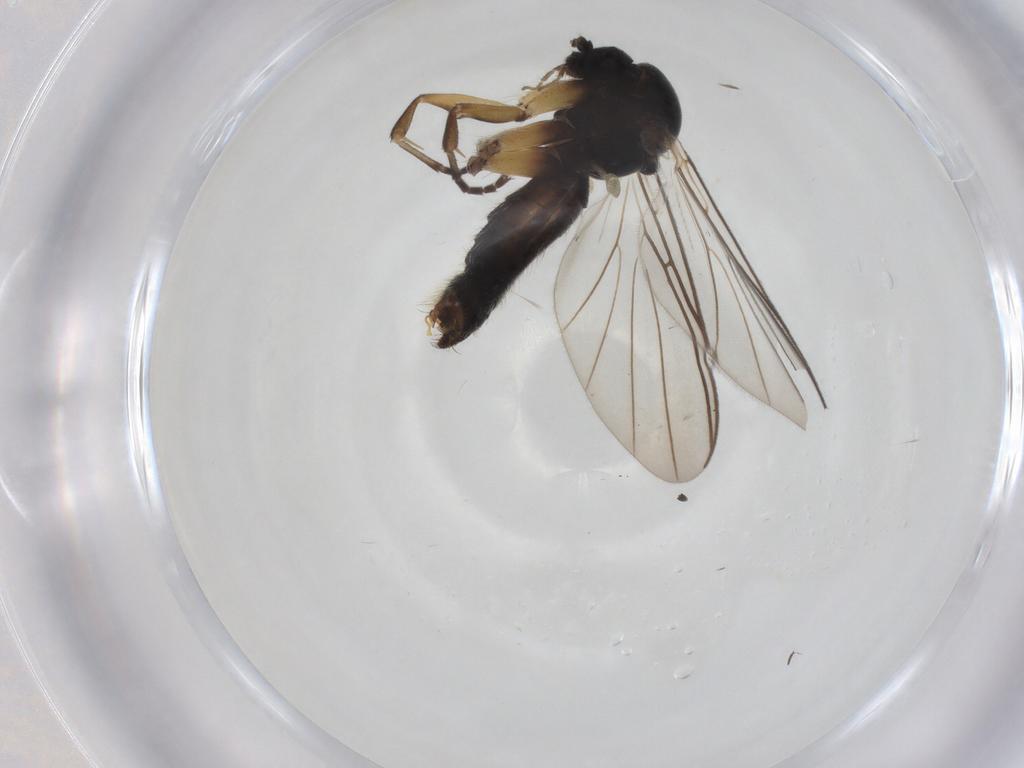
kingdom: Animalia
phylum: Arthropoda
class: Insecta
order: Diptera
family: Mycetophilidae
